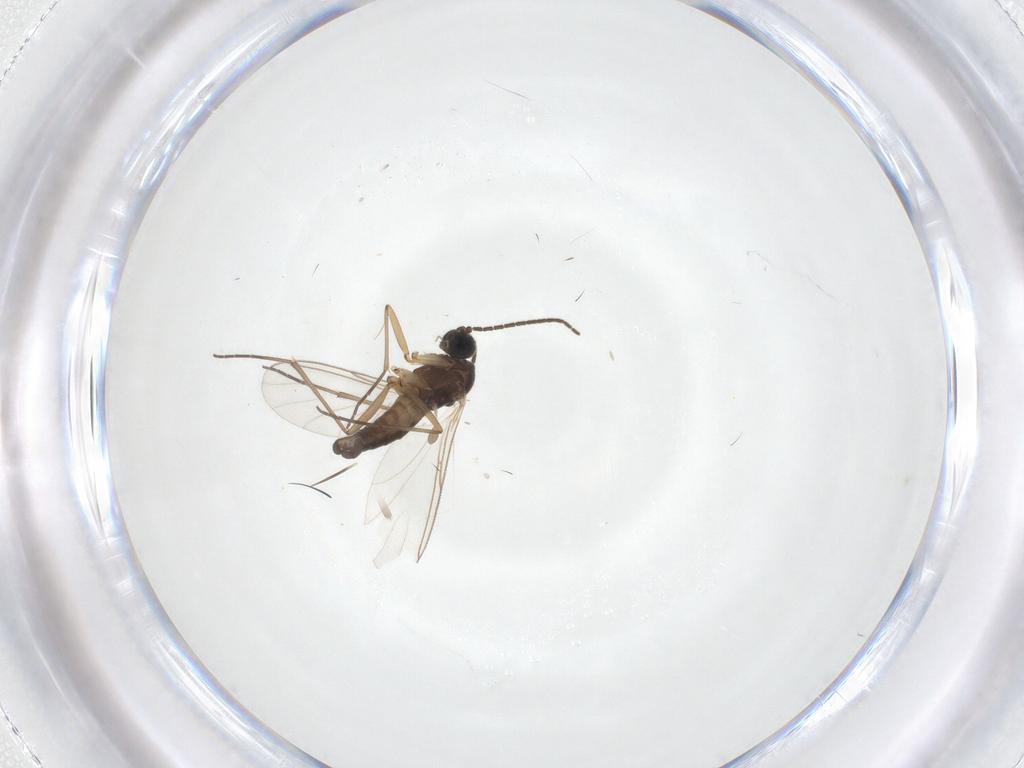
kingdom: Animalia
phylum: Arthropoda
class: Insecta
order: Diptera
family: Sciaridae
